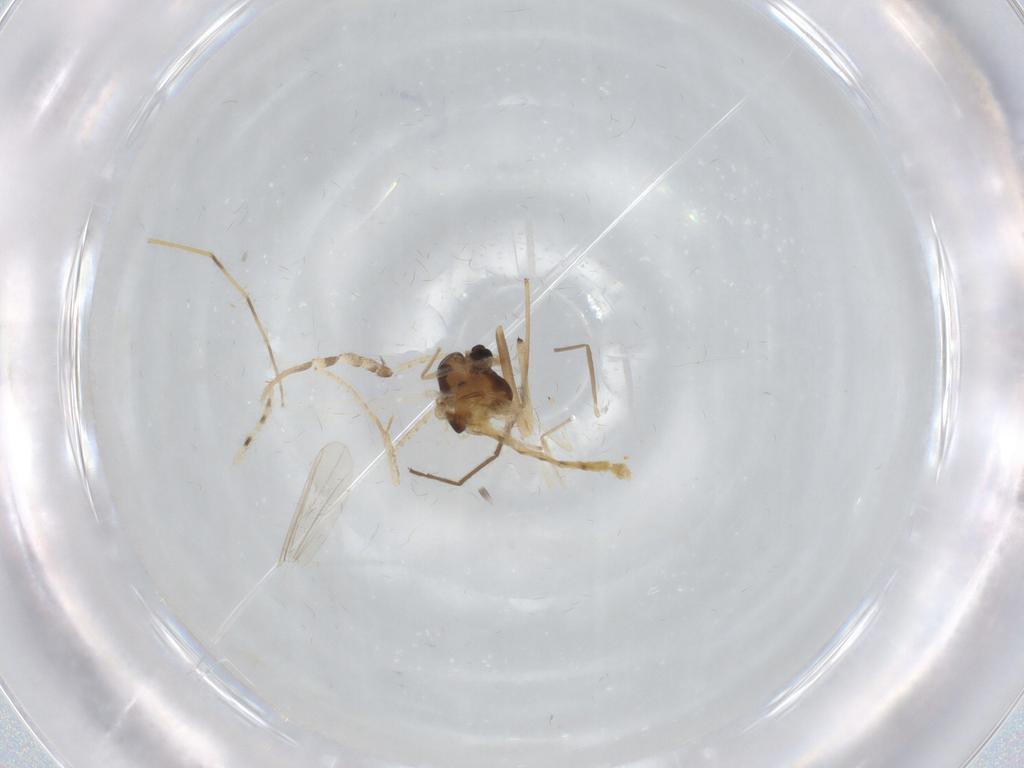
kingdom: Animalia
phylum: Arthropoda
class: Insecta
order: Diptera
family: Chironomidae
